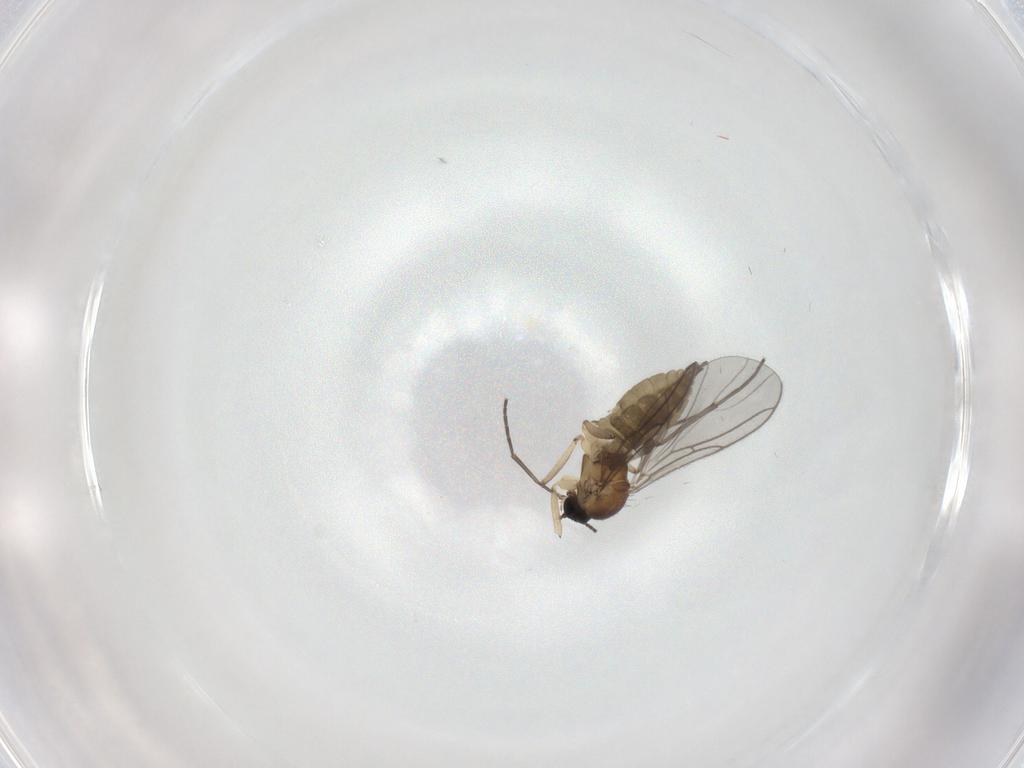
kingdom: Animalia
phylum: Arthropoda
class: Insecta
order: Diptera
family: Sciaridae
